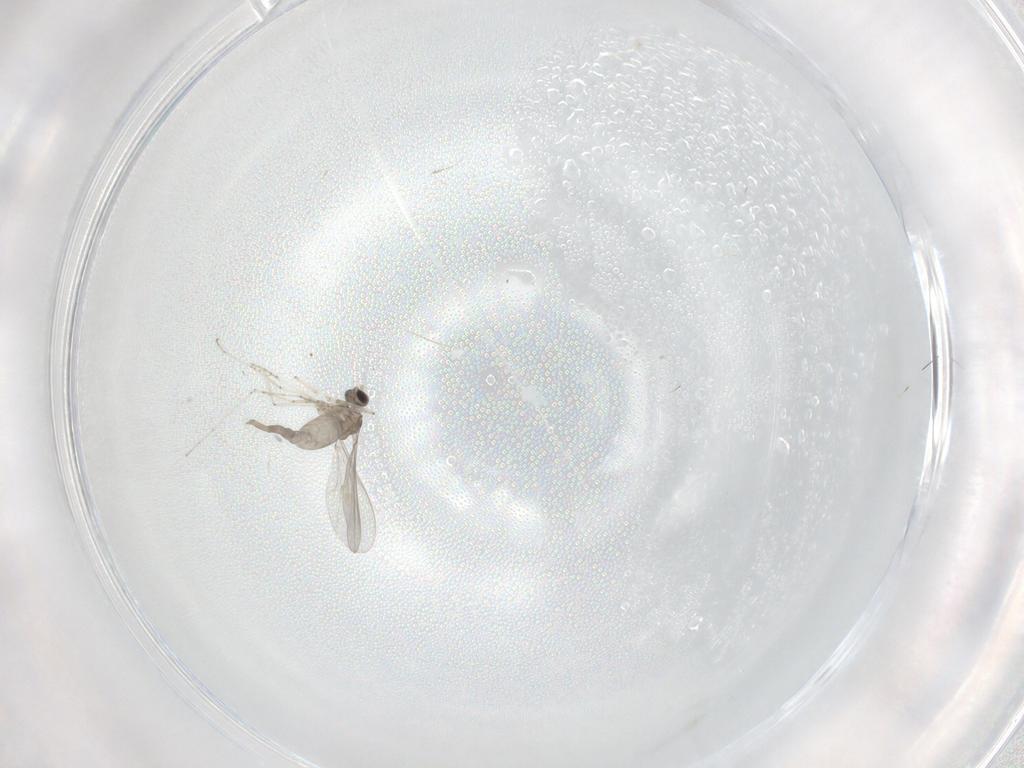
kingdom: Animalia
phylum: Arthropoda
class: Insecta
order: Diptera
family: Cecidomyiidae
